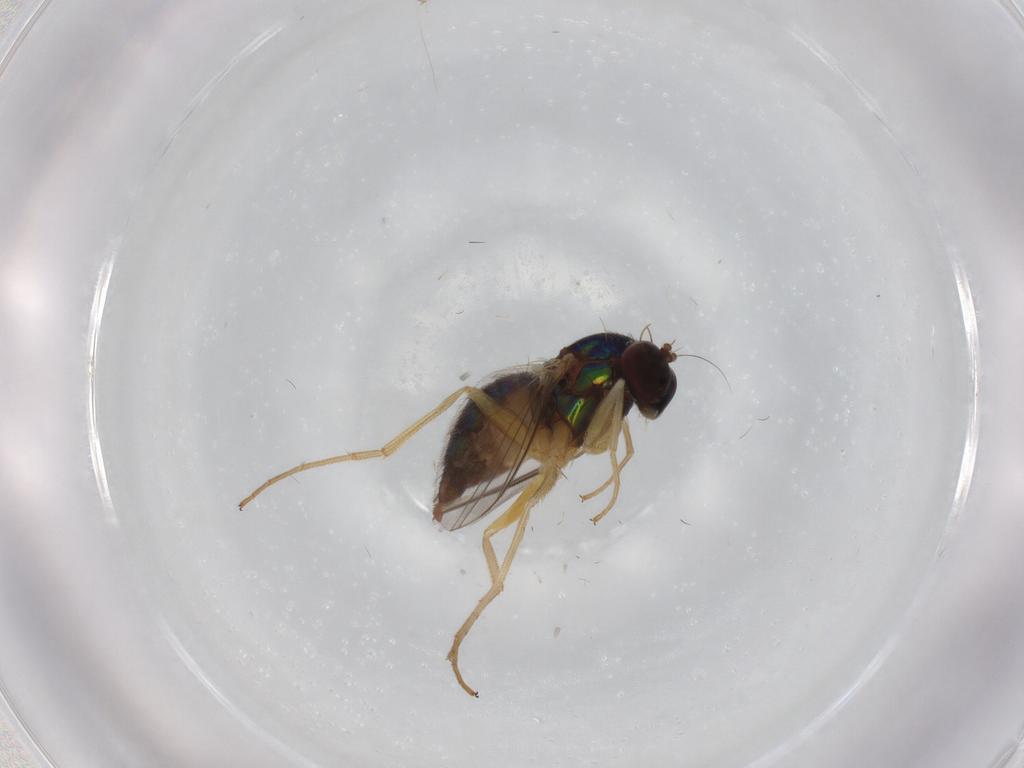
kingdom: Animalia
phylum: Arthropoda
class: Insecta
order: Diptera
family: Dolichopodidae
